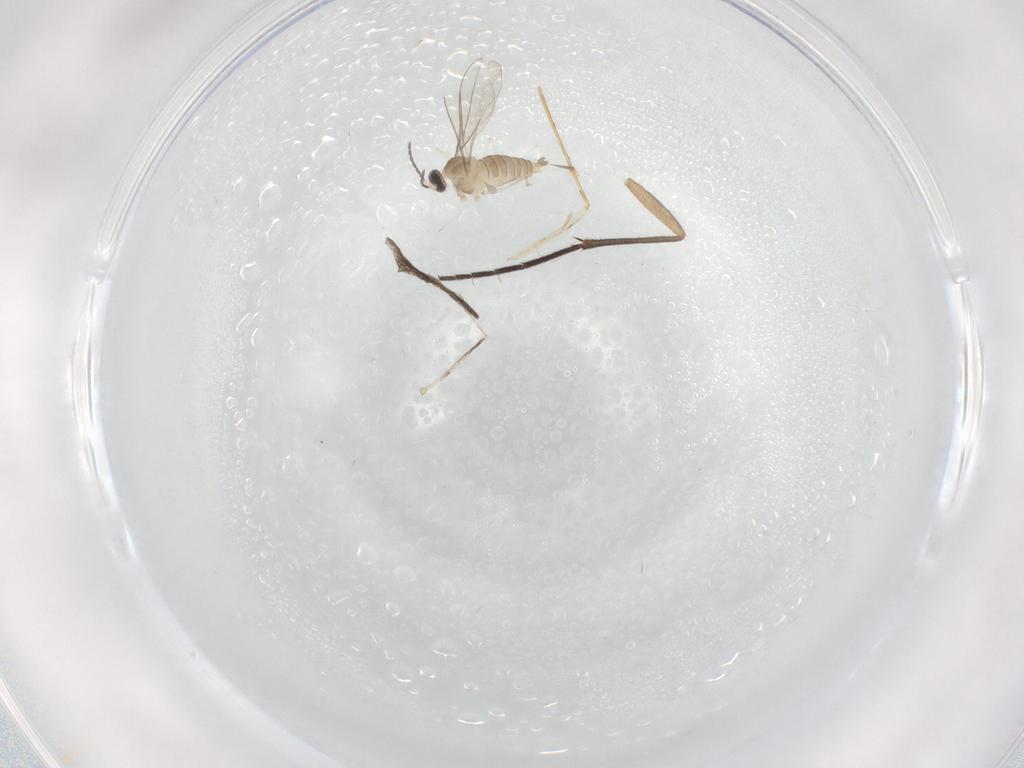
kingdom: Animalia
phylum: Arthropoda
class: Insecta
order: Diptera
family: Cecidomyiidae
